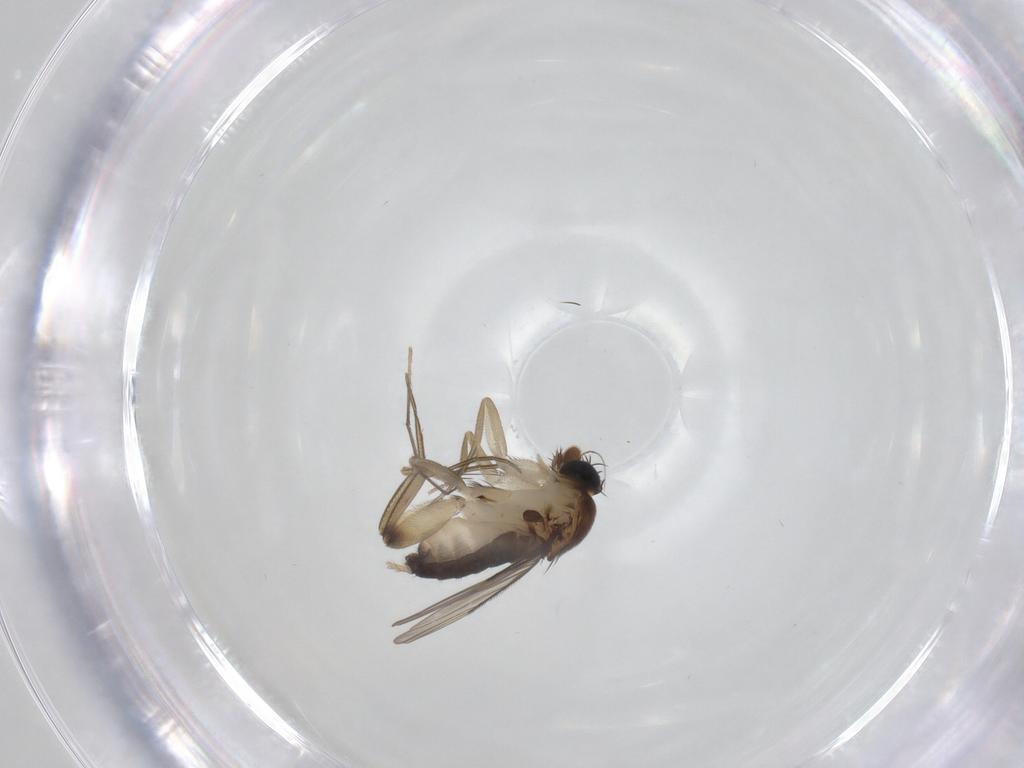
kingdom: Animalia
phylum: Arthropoda
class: Insecta
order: Diptera
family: Phoridae
